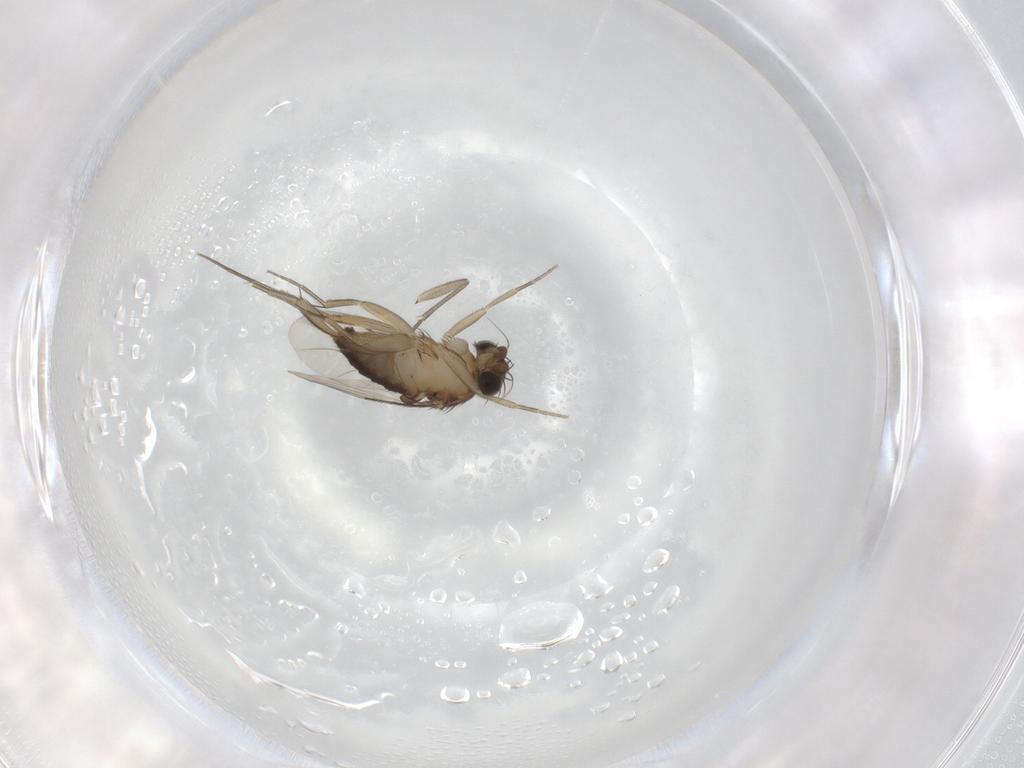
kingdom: Animalia
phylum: Arthropoda
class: Insecta
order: Diptera
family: Phoridae
